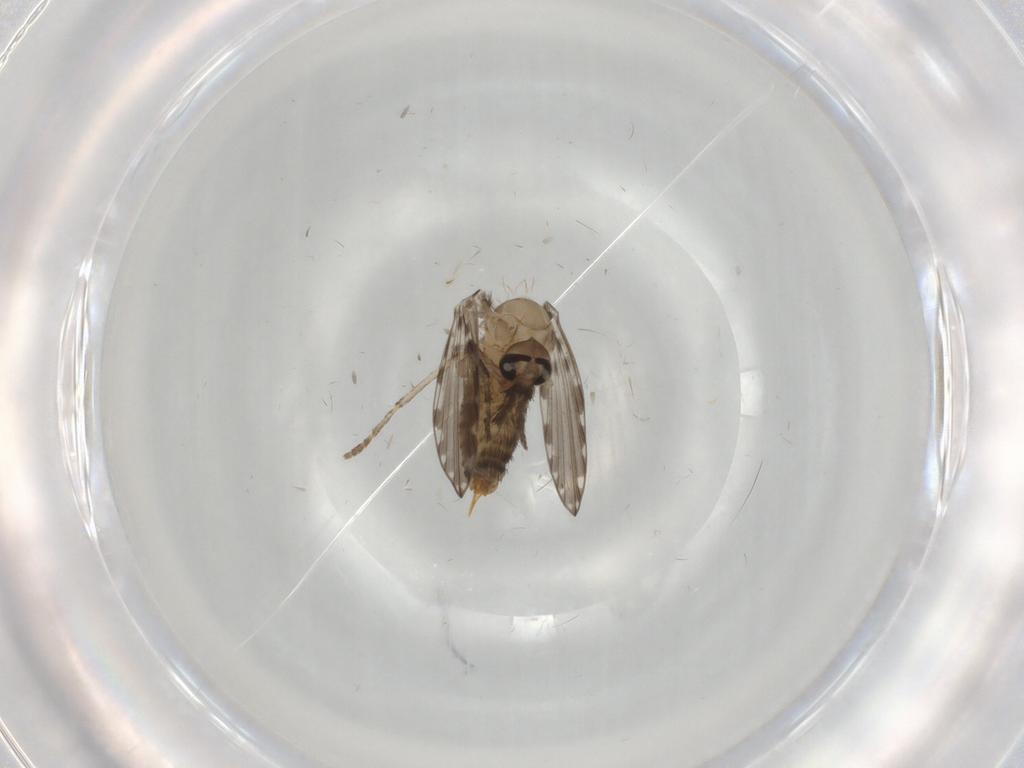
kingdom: Animalia
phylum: Arthropoda
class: Insecta
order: Diptera
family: Psychodidae
